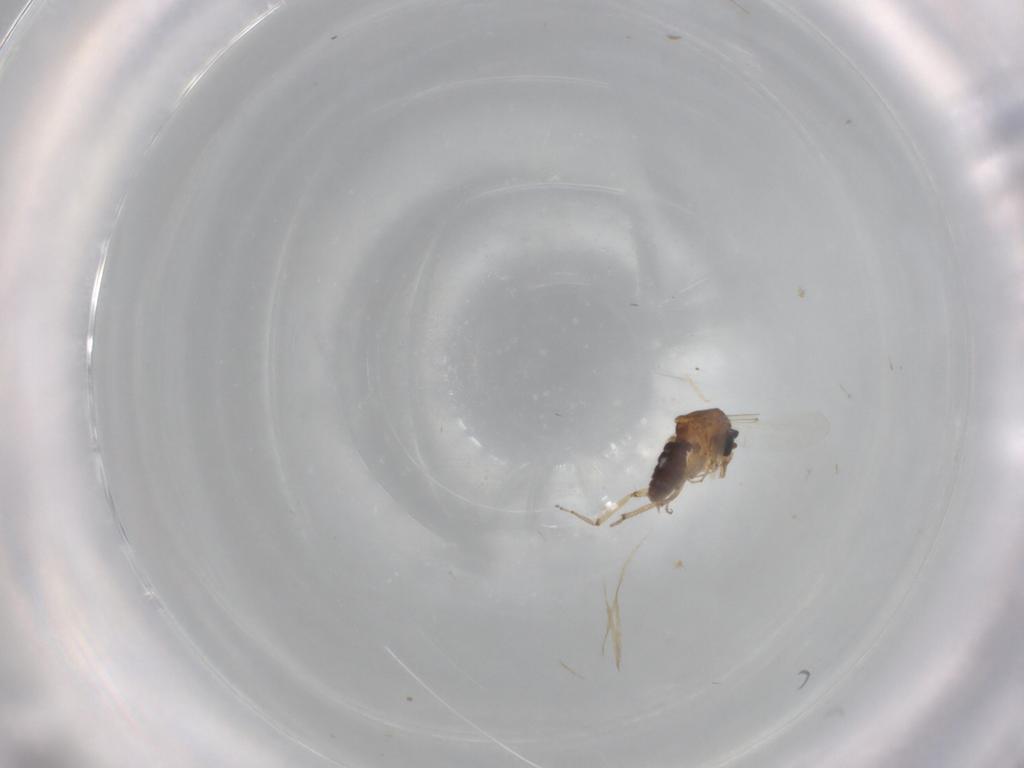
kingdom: Animalia
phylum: Arthropoda
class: Insecta
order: Diptera
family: Ceratopogonidae
